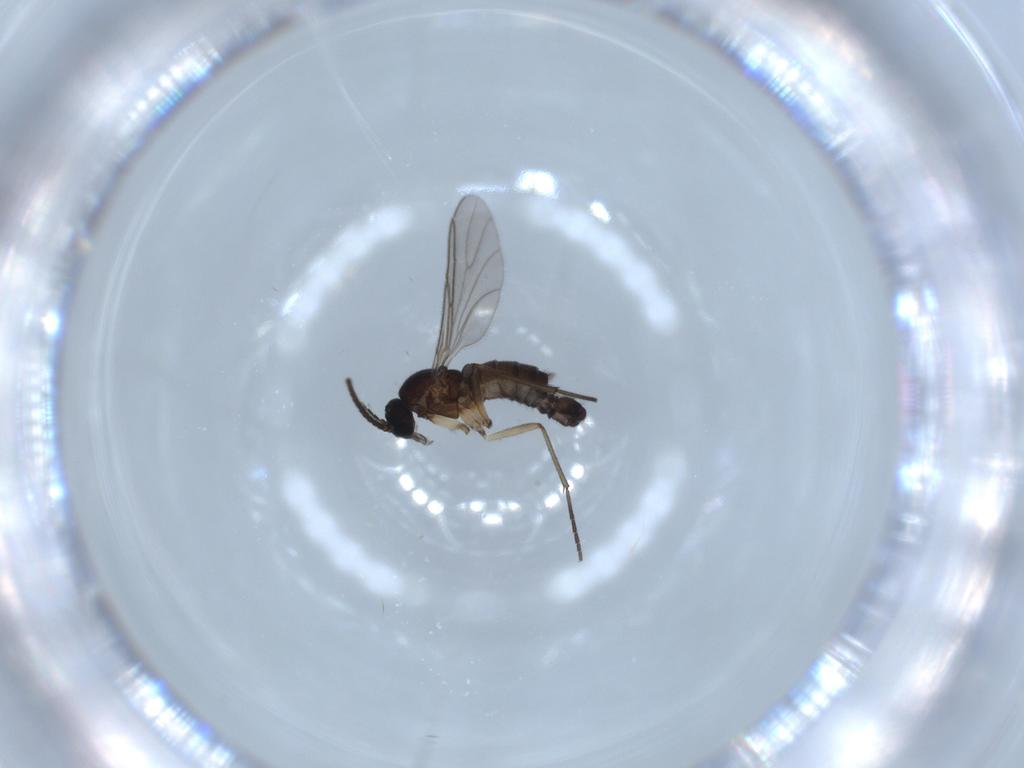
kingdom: Animalia
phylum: Arthropoda
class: Insecta
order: Diptera
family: Sciaridae
